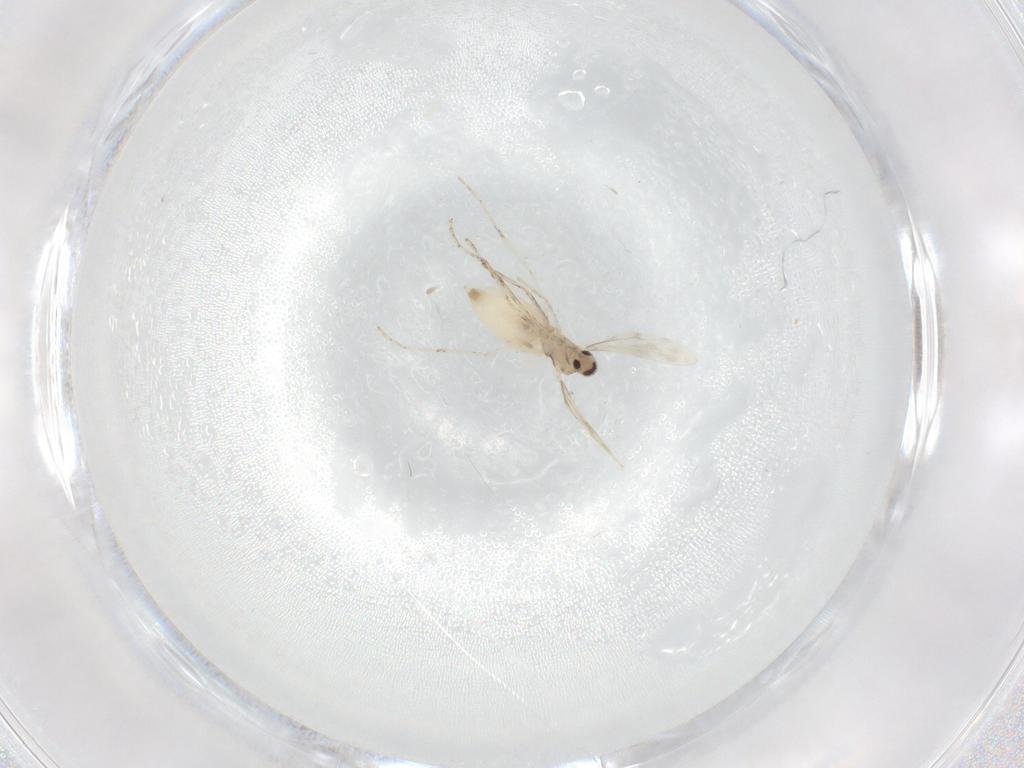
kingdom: Animalia
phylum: Arthropoda
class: Insecta
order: Diptera
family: Cecidomyiidae
